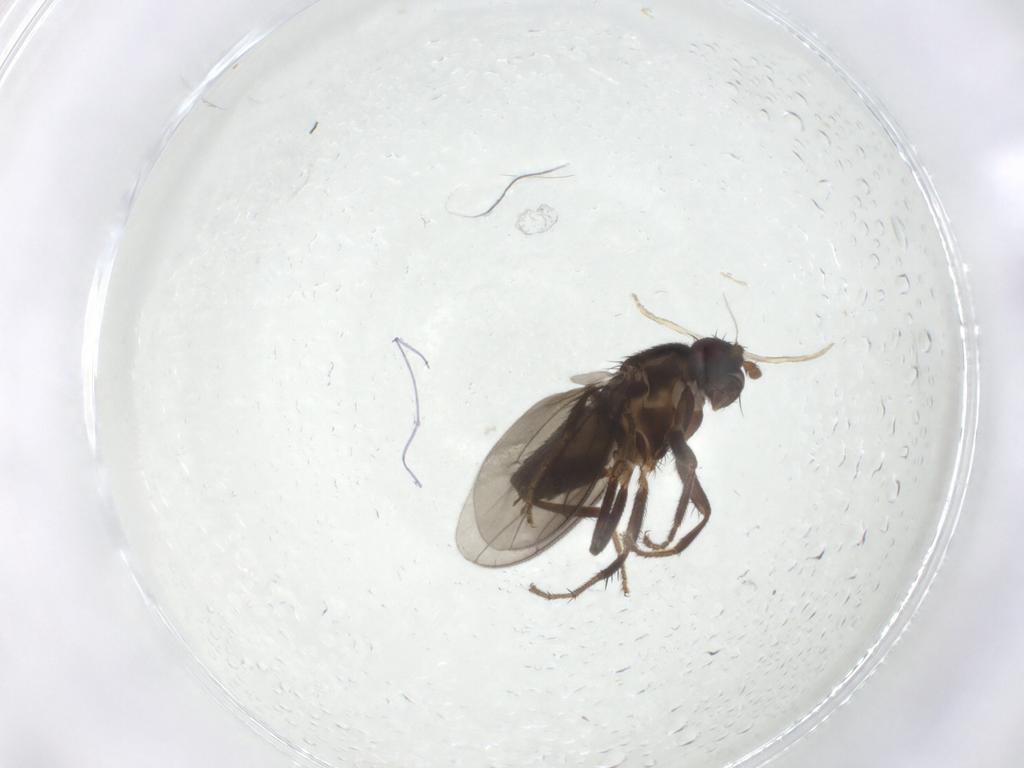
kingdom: Animalia
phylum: Arthropoda
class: Insecta
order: Diptera
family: Sphaeroceridae
